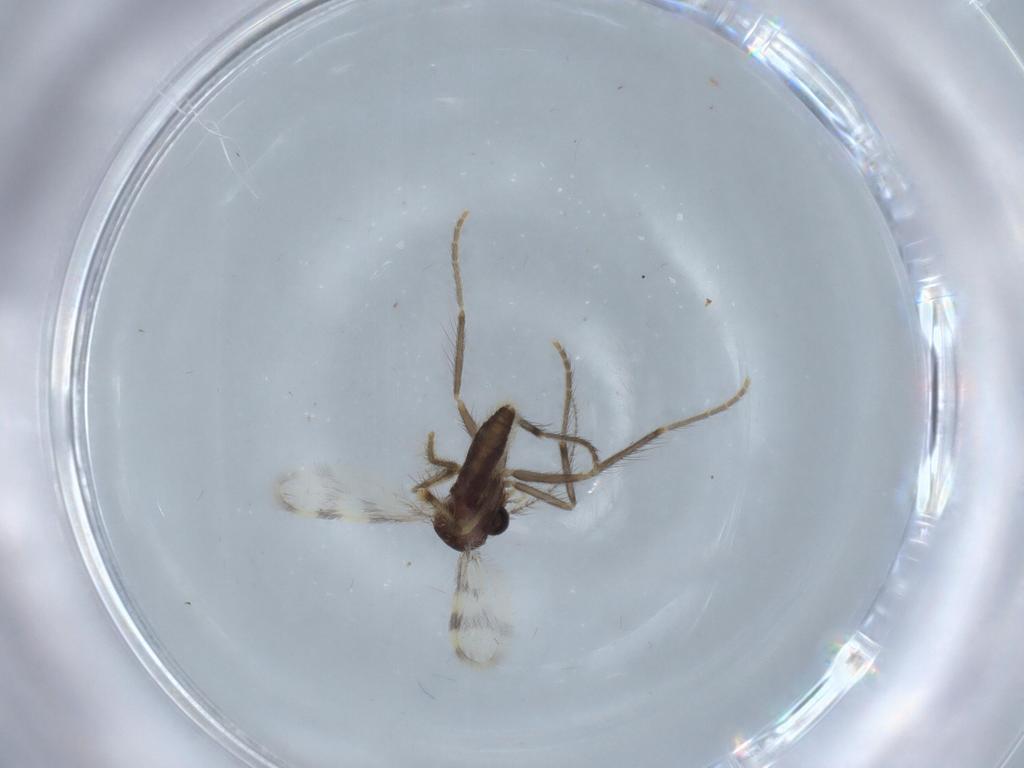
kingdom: Animalia
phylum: Arthropoda
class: Insecta
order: Diptera
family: Corethrellidae
